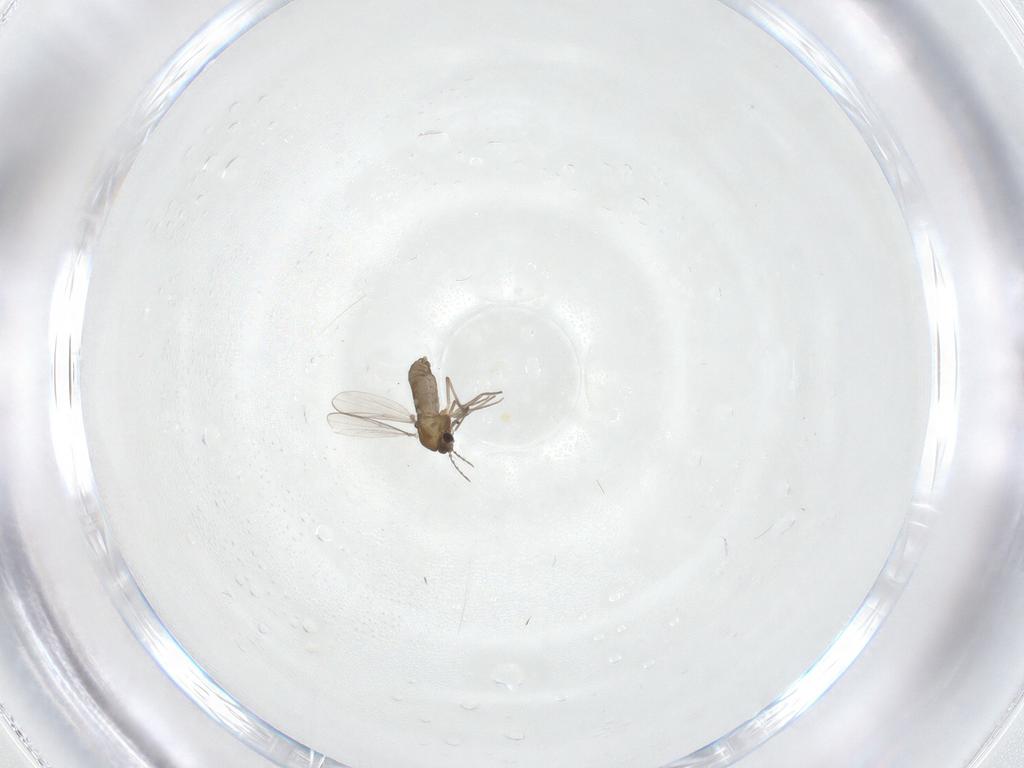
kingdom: Animalia
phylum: Arthropoda
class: Insecta
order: Diptera
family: Chironomidae
